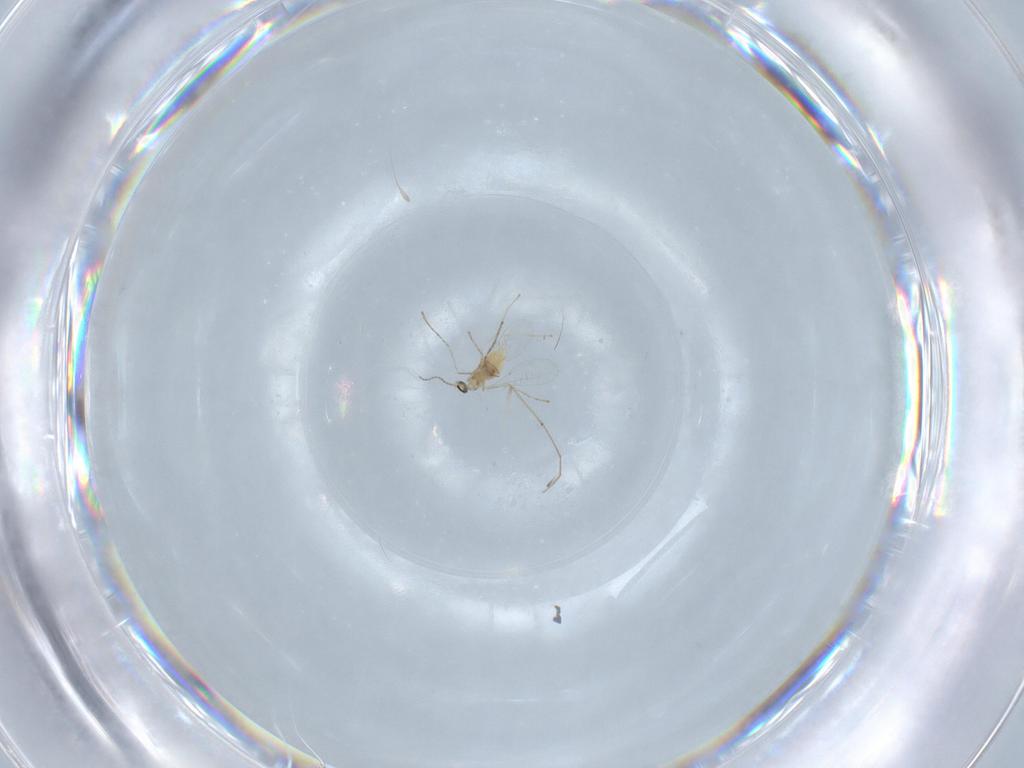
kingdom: Animalia
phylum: Arthropoda
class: Insecta
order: Diptera
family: Cecidomyiidae
